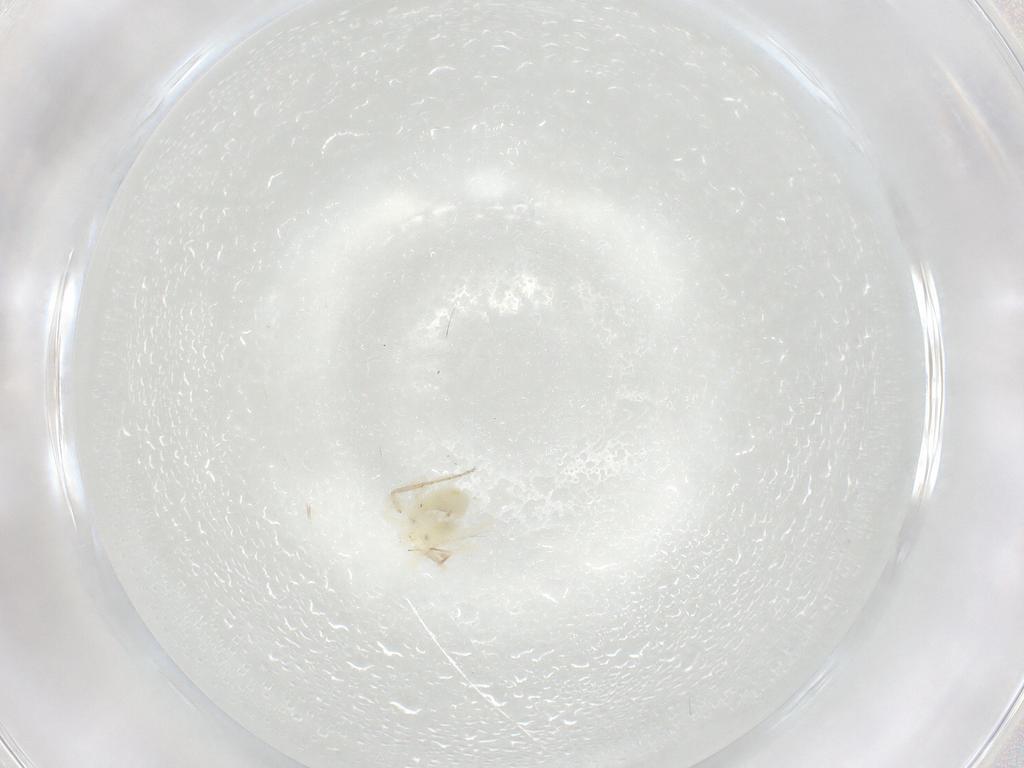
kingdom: Animalia
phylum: Arthropoda
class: Arachnida
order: Trombidiformes
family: Anystidae
